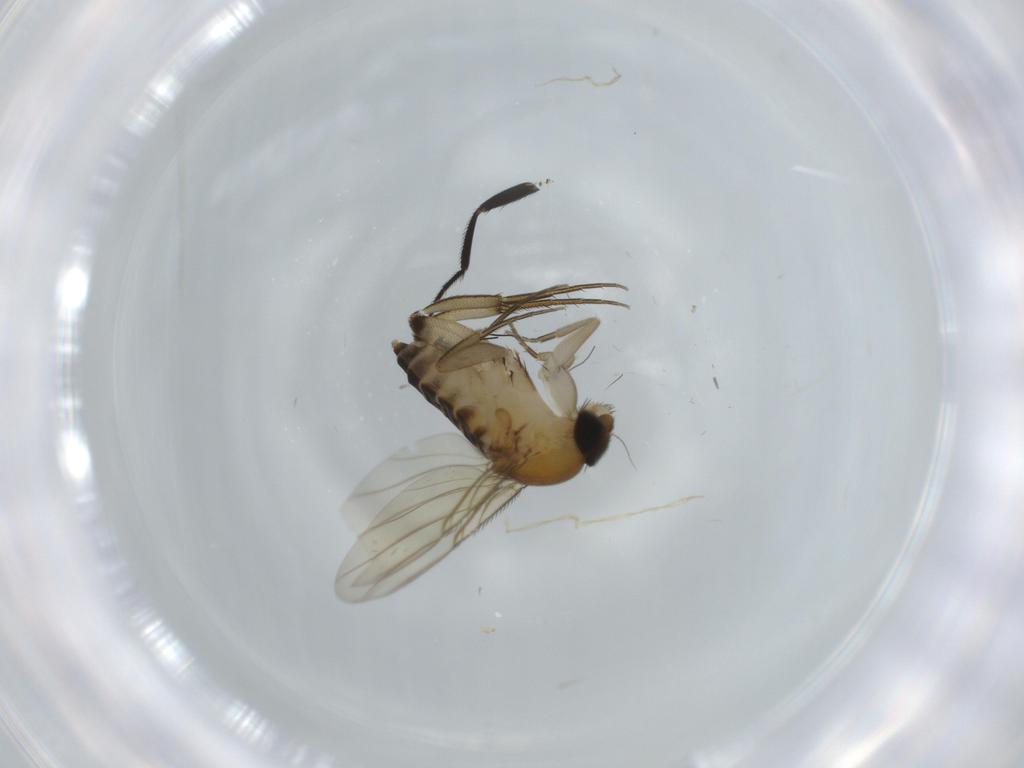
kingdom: Animalia
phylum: Arthropoda
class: Insecta
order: Diptera
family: Phoridae
